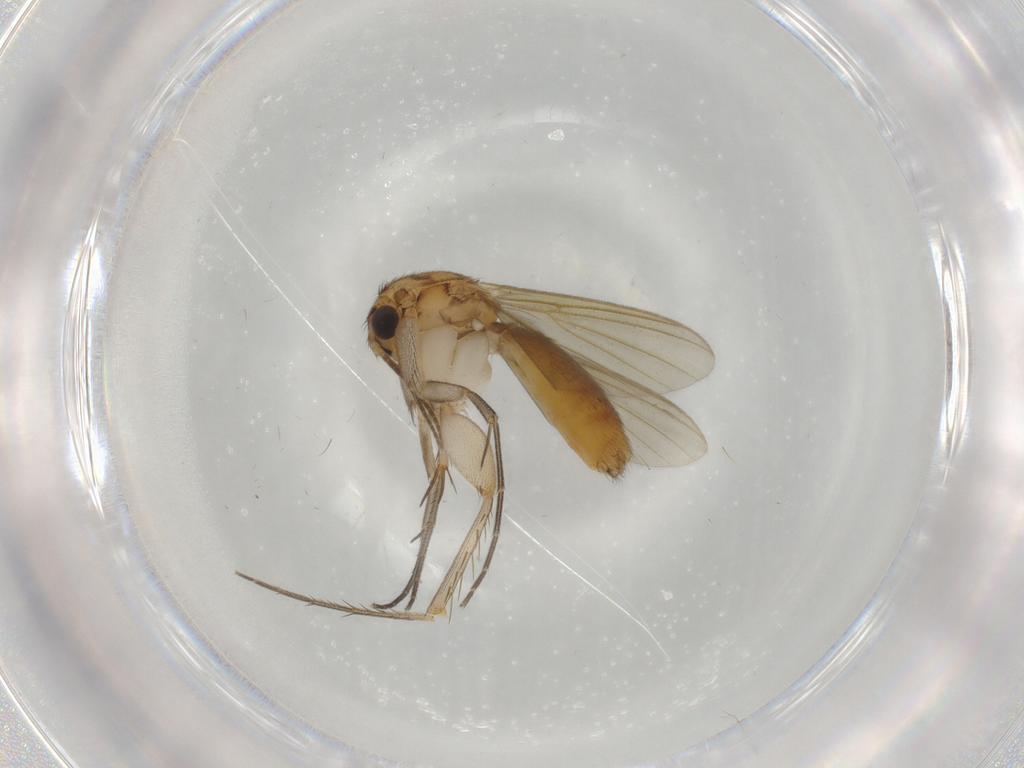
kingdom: Animalia
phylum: Arthropoda
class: Insecta
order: Diptera
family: Mycetophilidae
